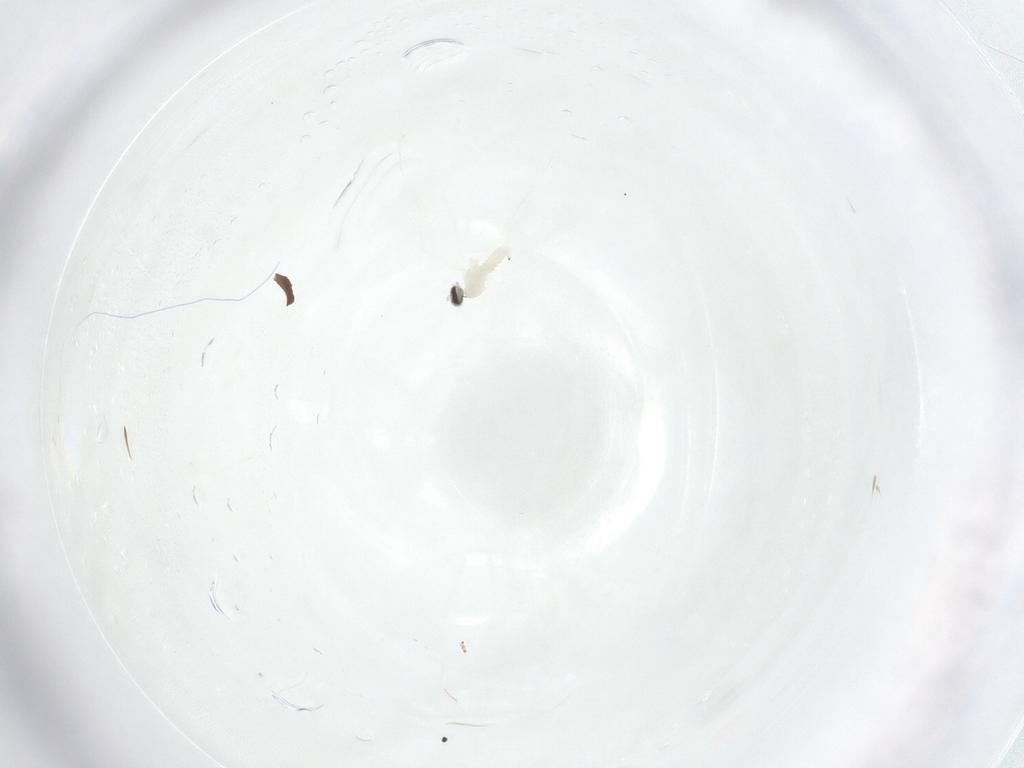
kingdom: Animalia
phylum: Arthropoda
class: Insecta
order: Diptera
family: Cecidomyiidae
